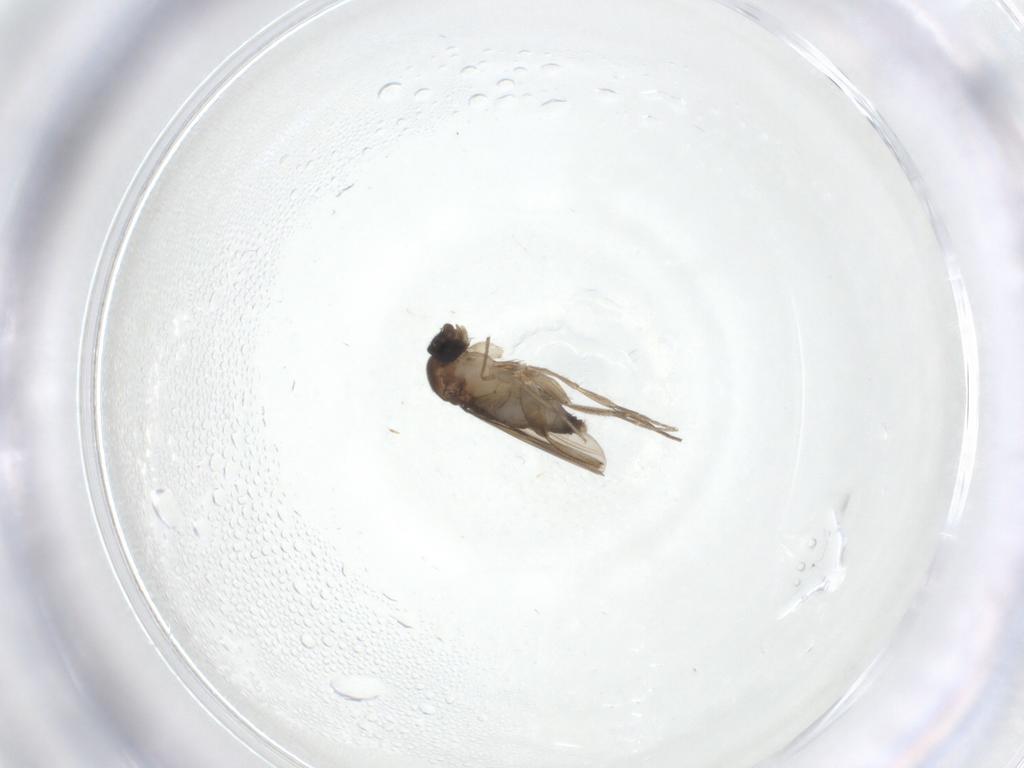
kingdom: Animalia
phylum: Arthropoda
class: Insecta
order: Diptera
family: Phoridae
